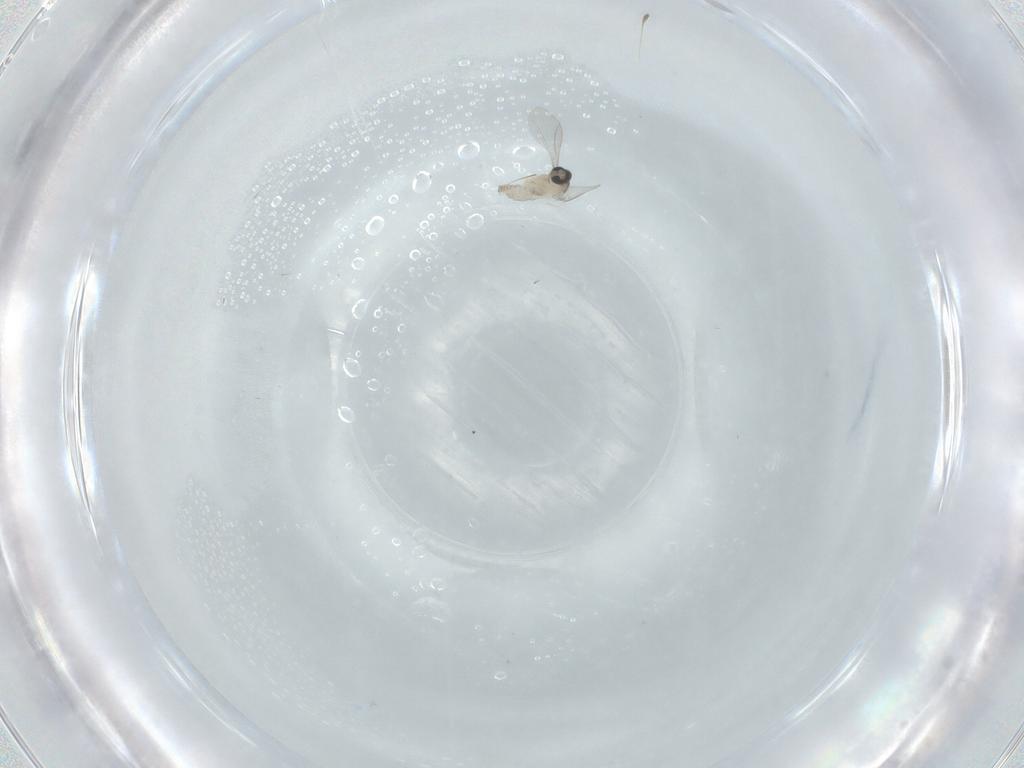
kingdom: Animalia
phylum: Arthropoda
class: Insecta
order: Diptera
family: Cecidomyiidae
